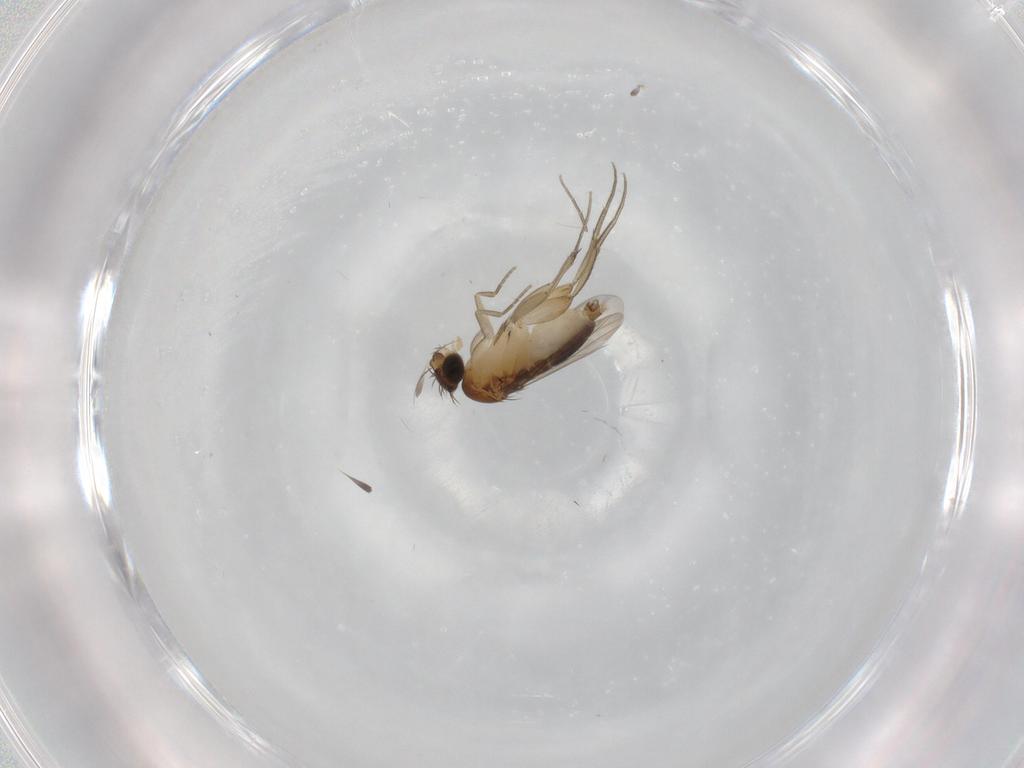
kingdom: Animalia
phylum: Arthropoda
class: Insecta
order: Diptera
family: Phoridae
